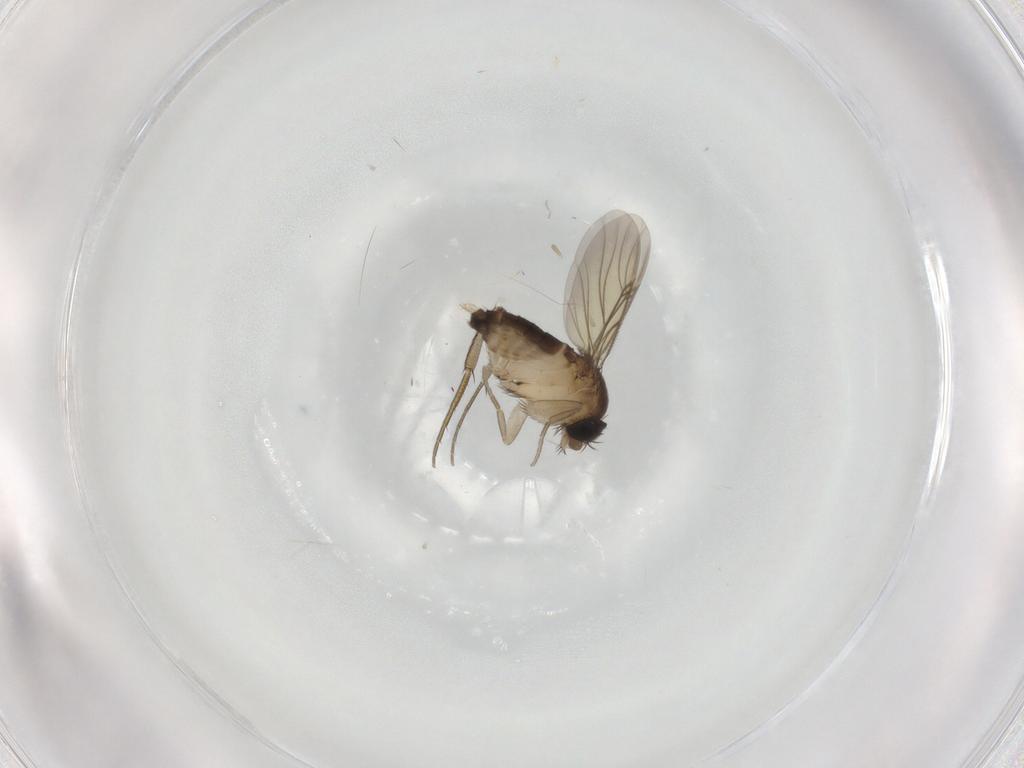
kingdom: Animalia
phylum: Arthropoda
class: Insecta
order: Diptera
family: Phoridae
